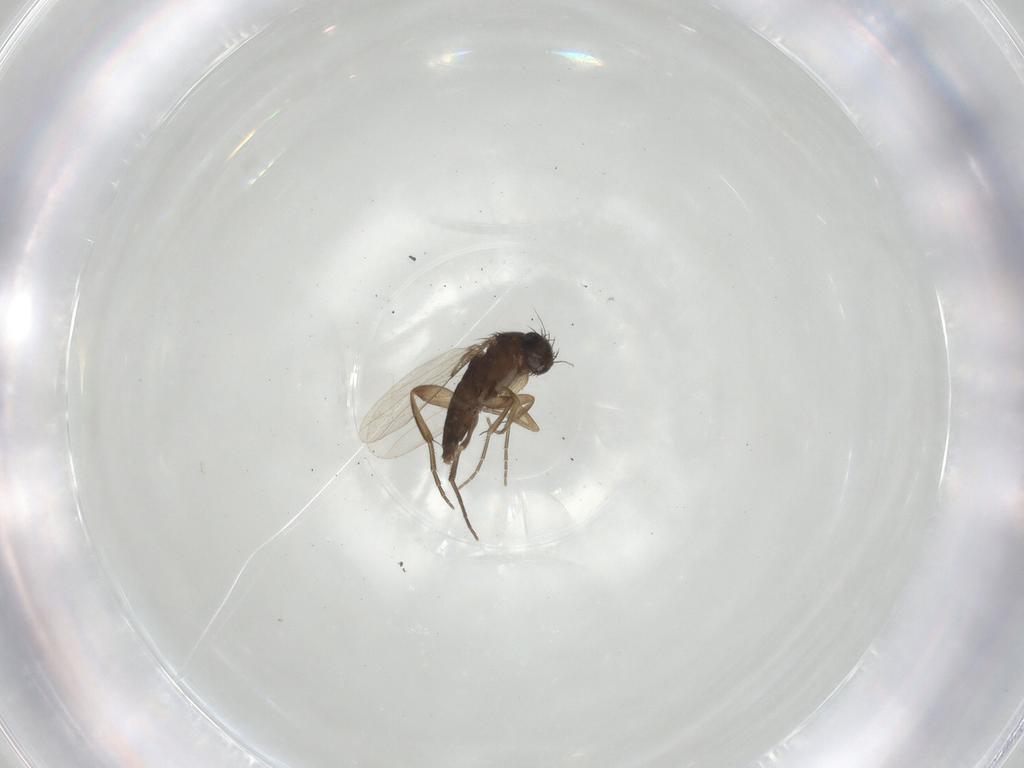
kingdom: Animalia
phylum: Arthropoda
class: Insecta
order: Diptera
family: Phoridae
